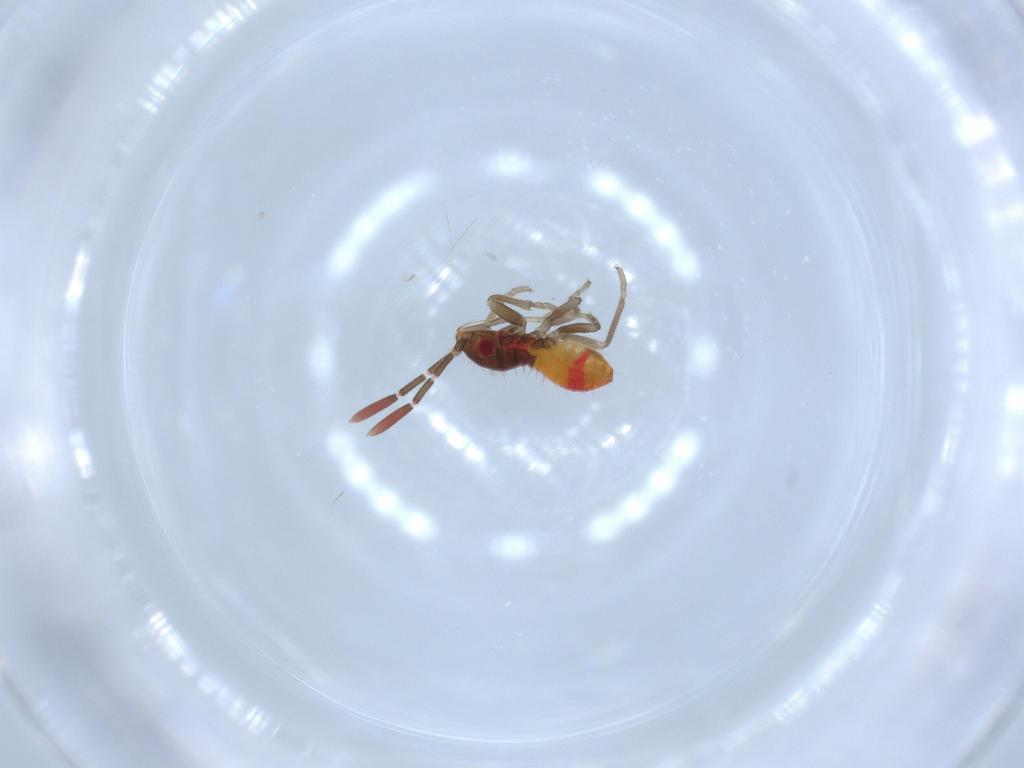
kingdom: Animalia
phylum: Arthropoda
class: Insecta
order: Hemiptera
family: Rhyparochromidae
